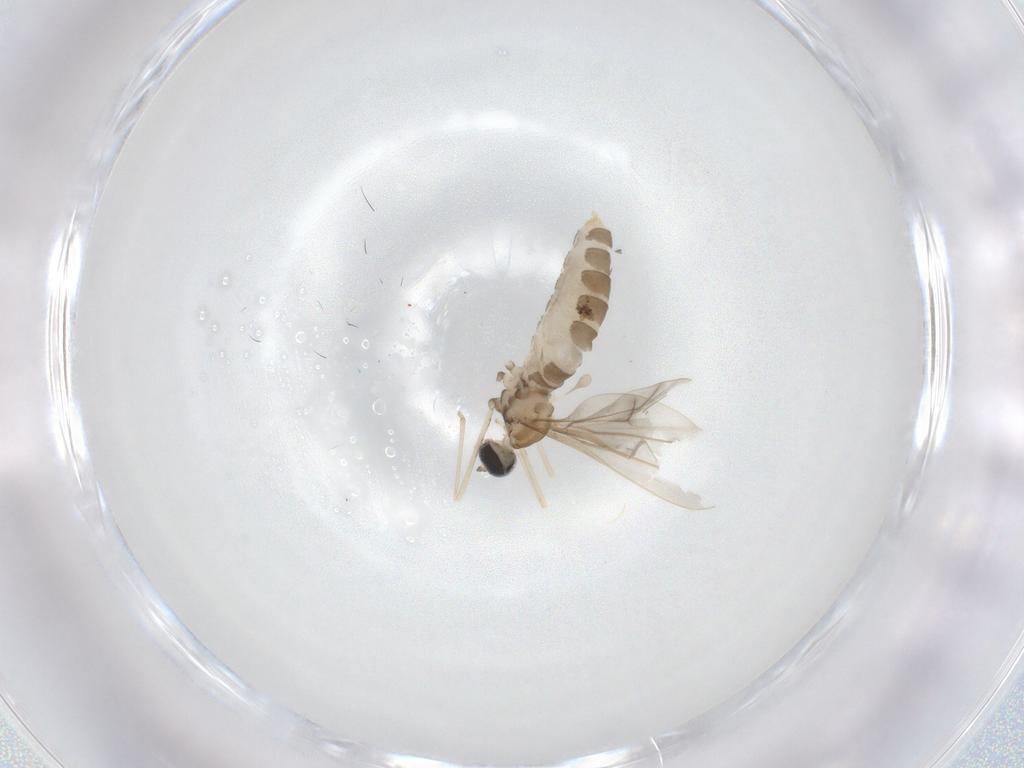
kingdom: Animalia
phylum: Arthropoda
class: Insecta
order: Diptera
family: Cecidomyiidae
